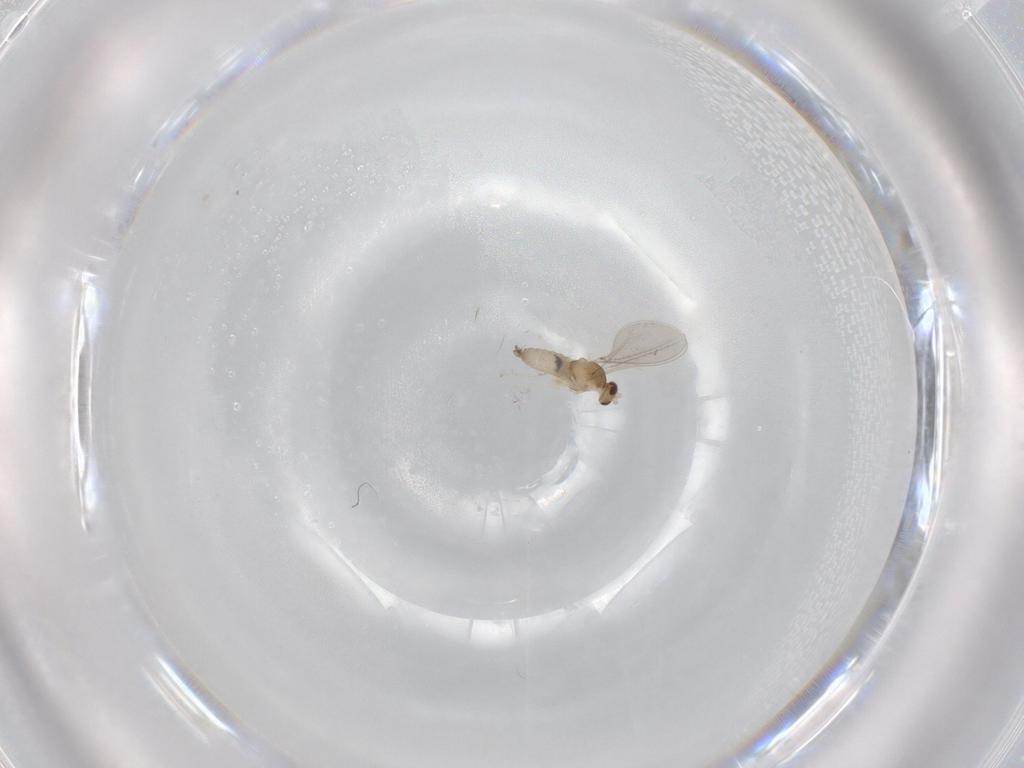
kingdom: Animalia
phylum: Arthropoda
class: Insecta
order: Diptera
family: Cecidomyiidae
